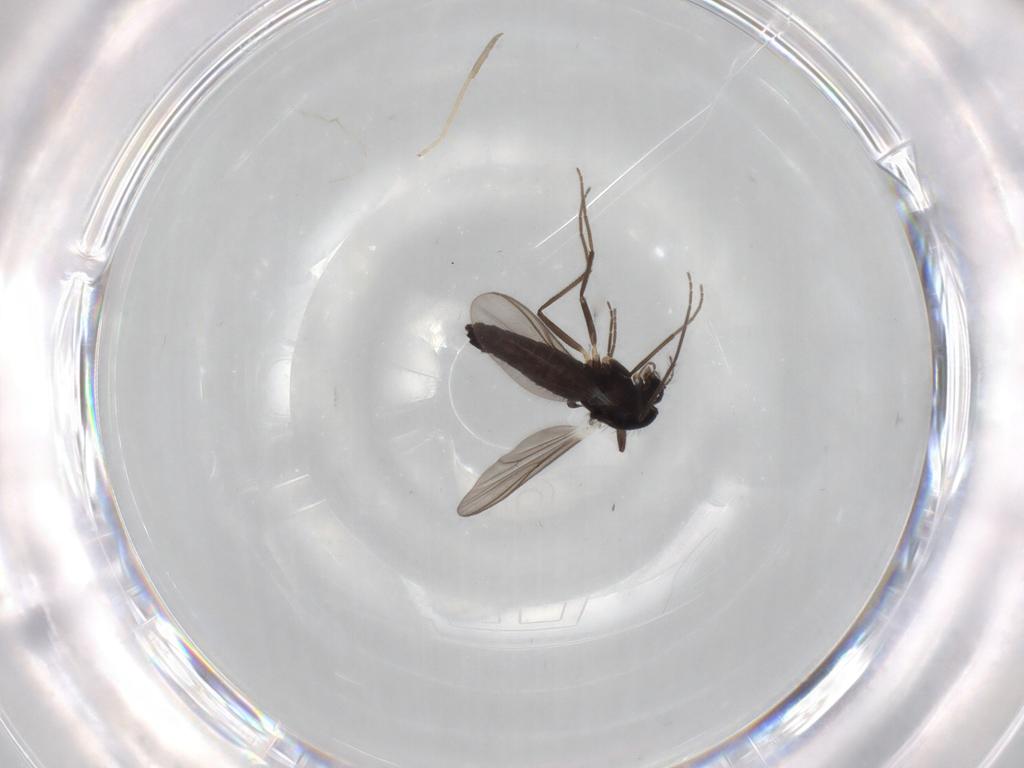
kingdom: Animalia
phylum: Arthropoda
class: Insecta
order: Diptera
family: Chironomidae
